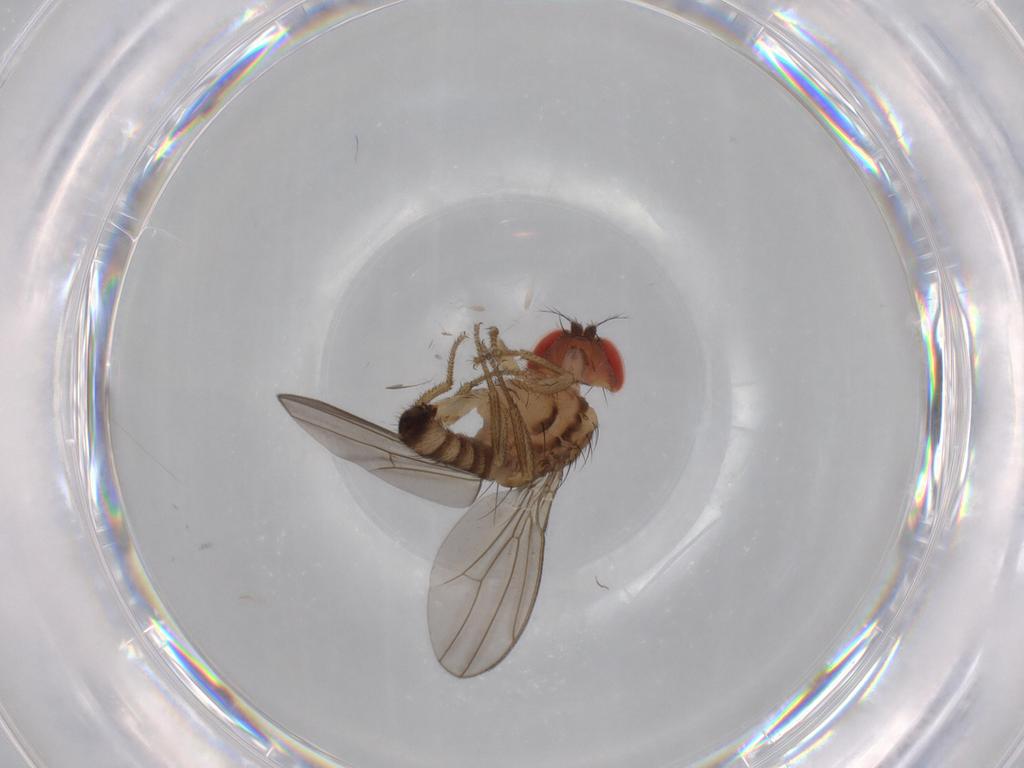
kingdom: Animalia
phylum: Arthropoda
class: Insecta
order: Diptera
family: Drosophilidae
